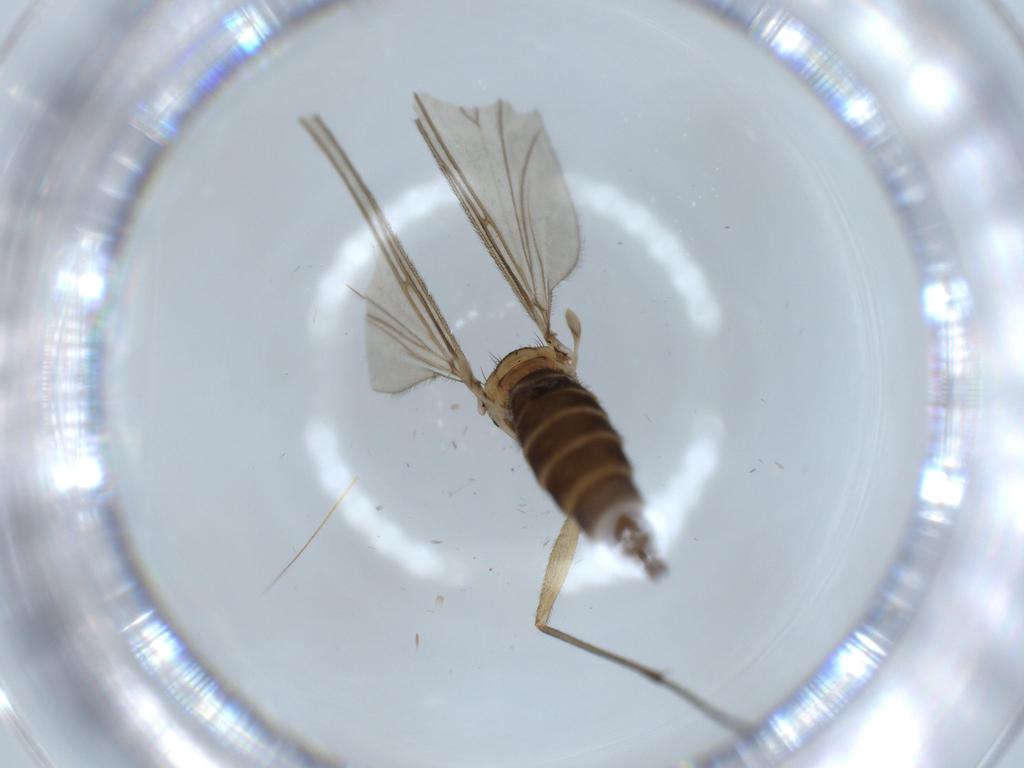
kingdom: Animalia
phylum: Arthropoda
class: Insecta
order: Diptera
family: Sciaridae
